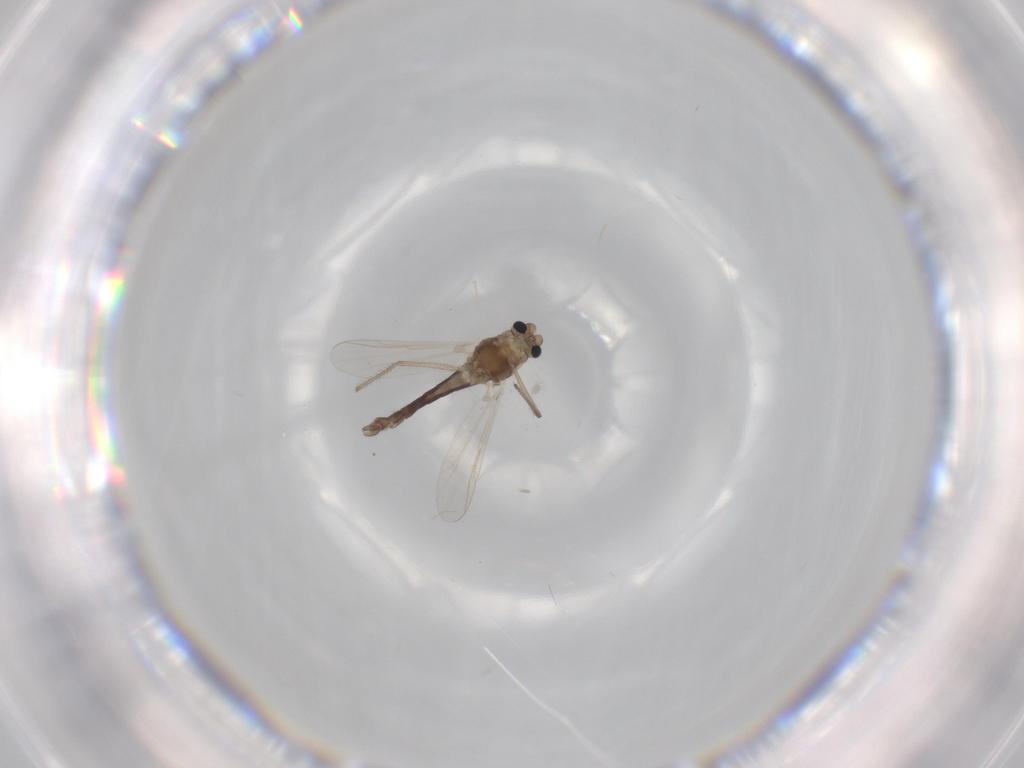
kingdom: Animalia
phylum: Arthropoda
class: Insecta
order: Diptera
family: Chironomidae
